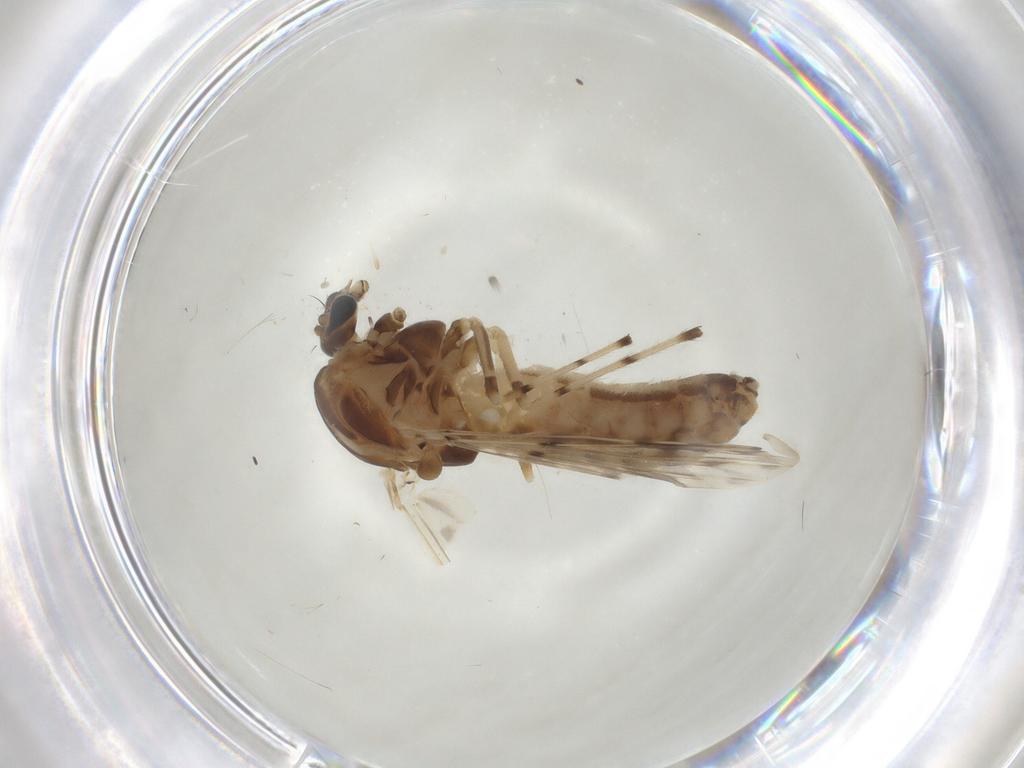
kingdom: Animalia
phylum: Arthropoda
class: Insecta
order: Diptera
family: Chironomidae
